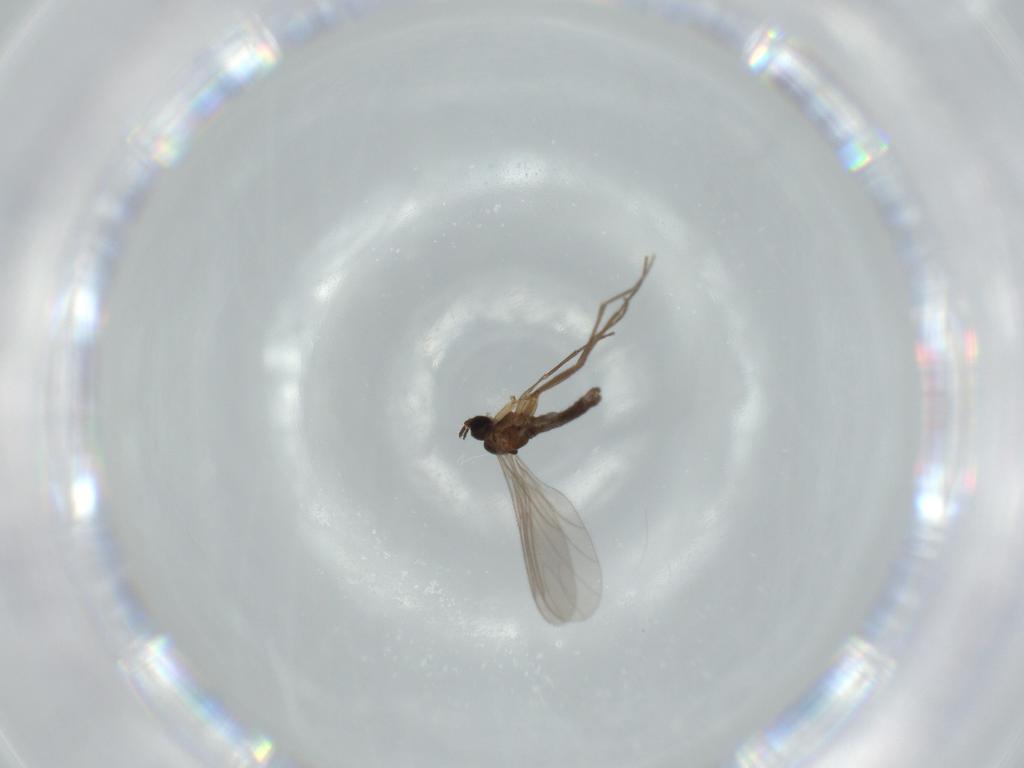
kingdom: Animalia
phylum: Arthropoda
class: Insecta
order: Diptera
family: Sciaridae
